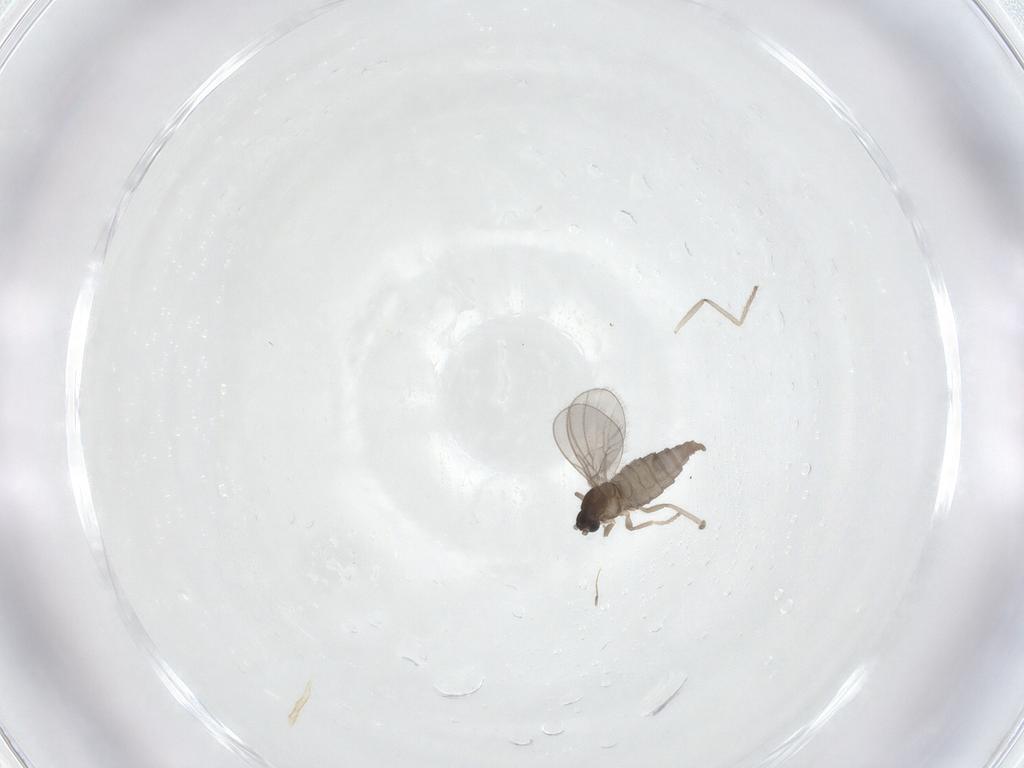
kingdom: Animalia
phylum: Arthropoda
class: Insecta
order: Diptera
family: Cecidomyiidae
